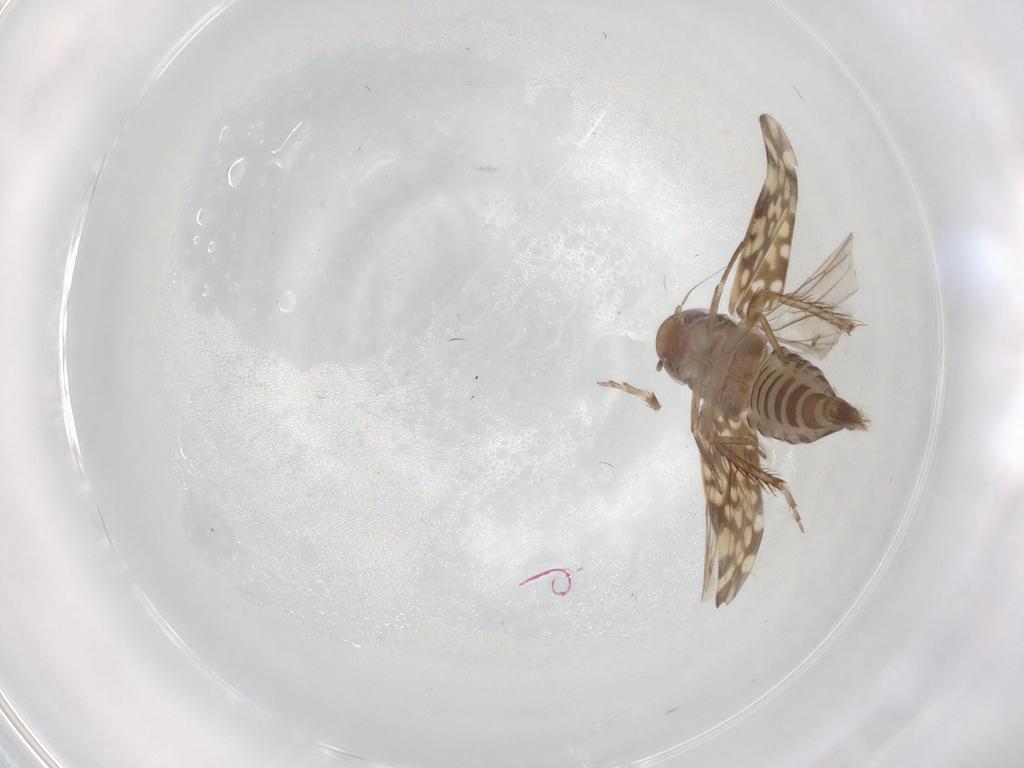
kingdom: Animalia
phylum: Arthropoda
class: Insecta
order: Hemiptera
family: Cicadellidae
